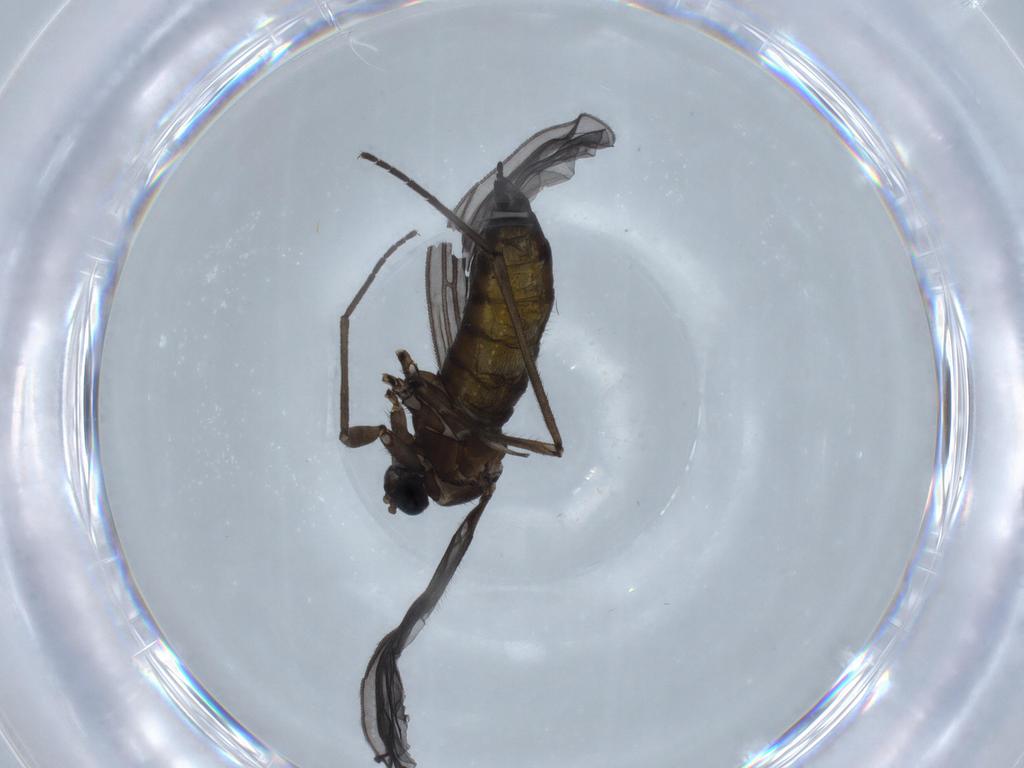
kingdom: Animalia
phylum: Arthropoda
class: Insecta
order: Diptera
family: Sciaridae
